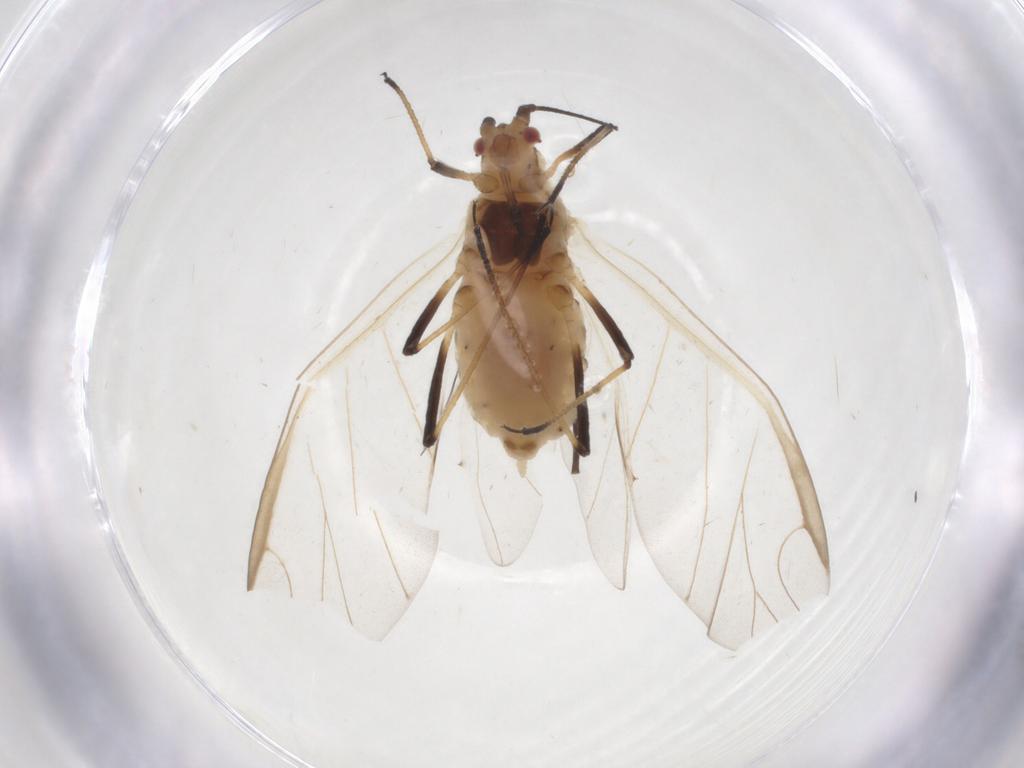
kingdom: Animalia
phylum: Arthropoda
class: Insecta
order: Hemiptera
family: Aphididae
